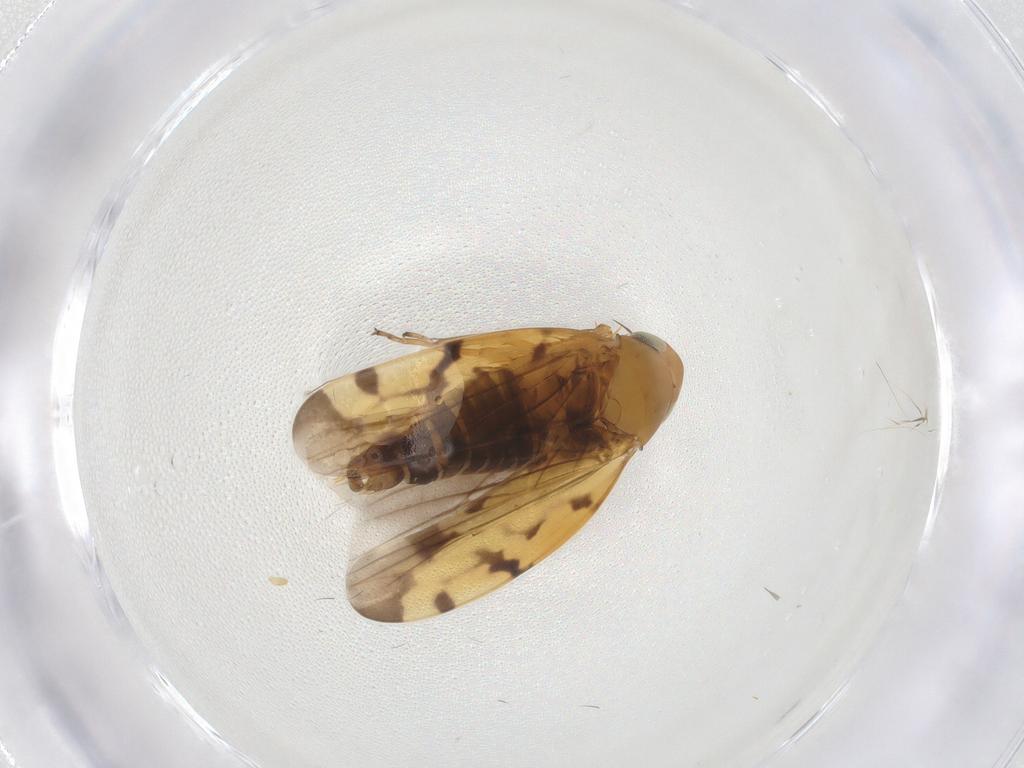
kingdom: Animalia
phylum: Arthropoda
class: Insecta
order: Hemiptera
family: Cicadellidae
